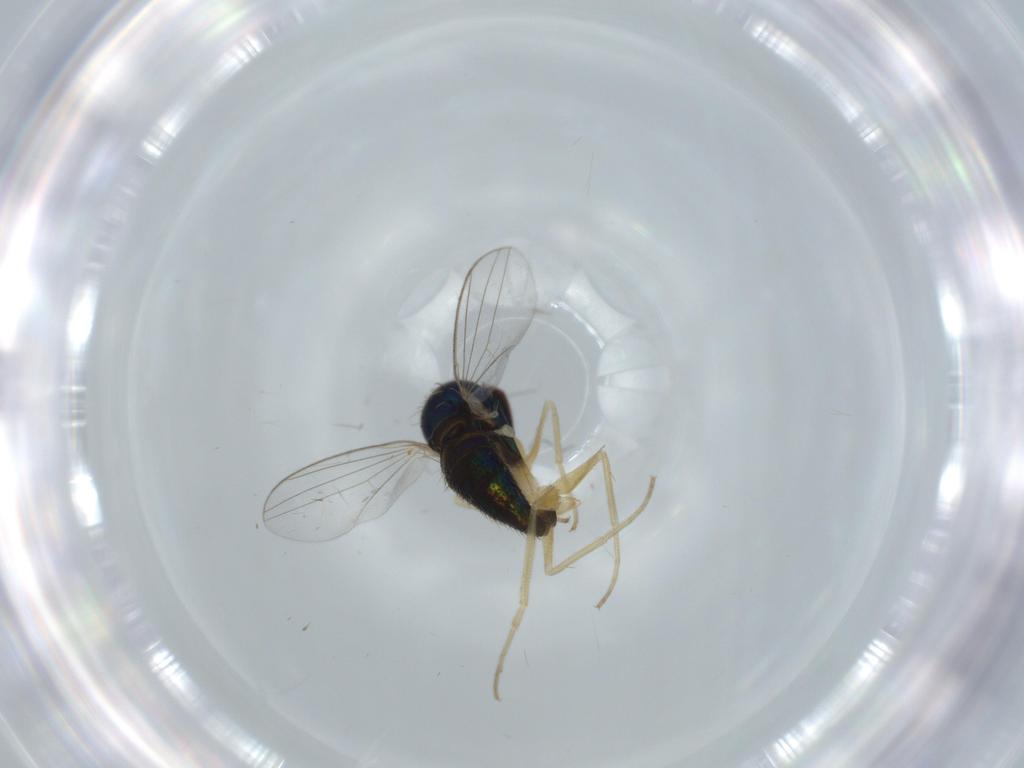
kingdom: Animalia
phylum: Arthropoda
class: Insecta
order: Diptera
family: Dolichopodidae
